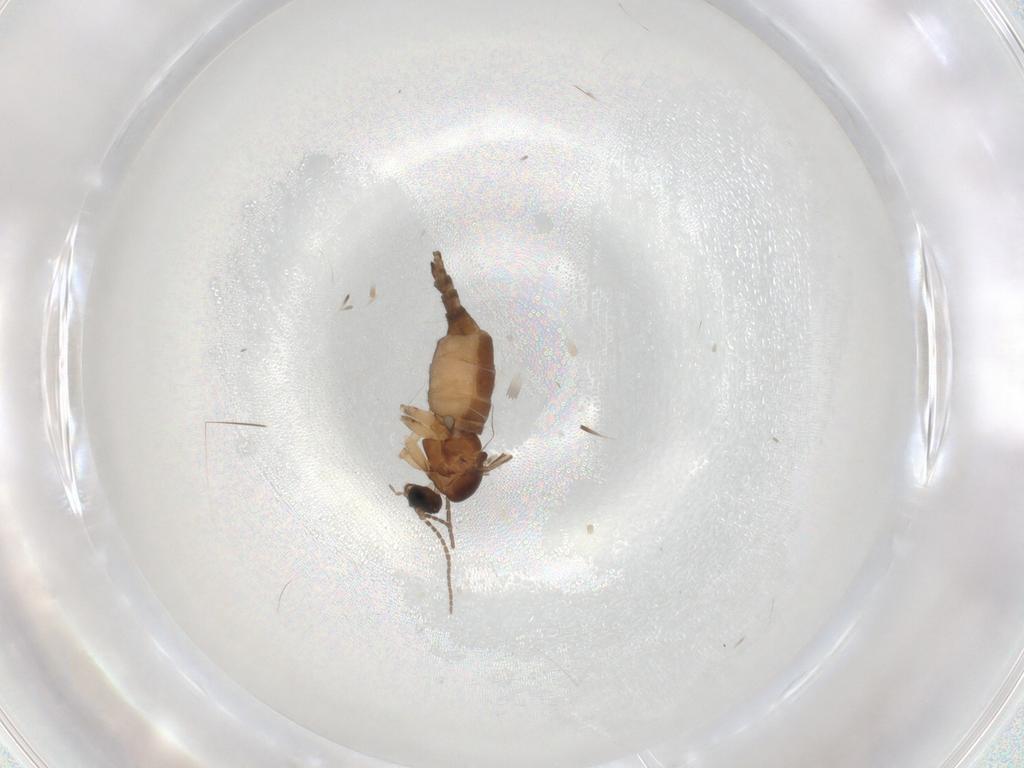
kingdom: Animalia
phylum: Arthropoda
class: Insecta
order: Diptera
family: Sciaridae
